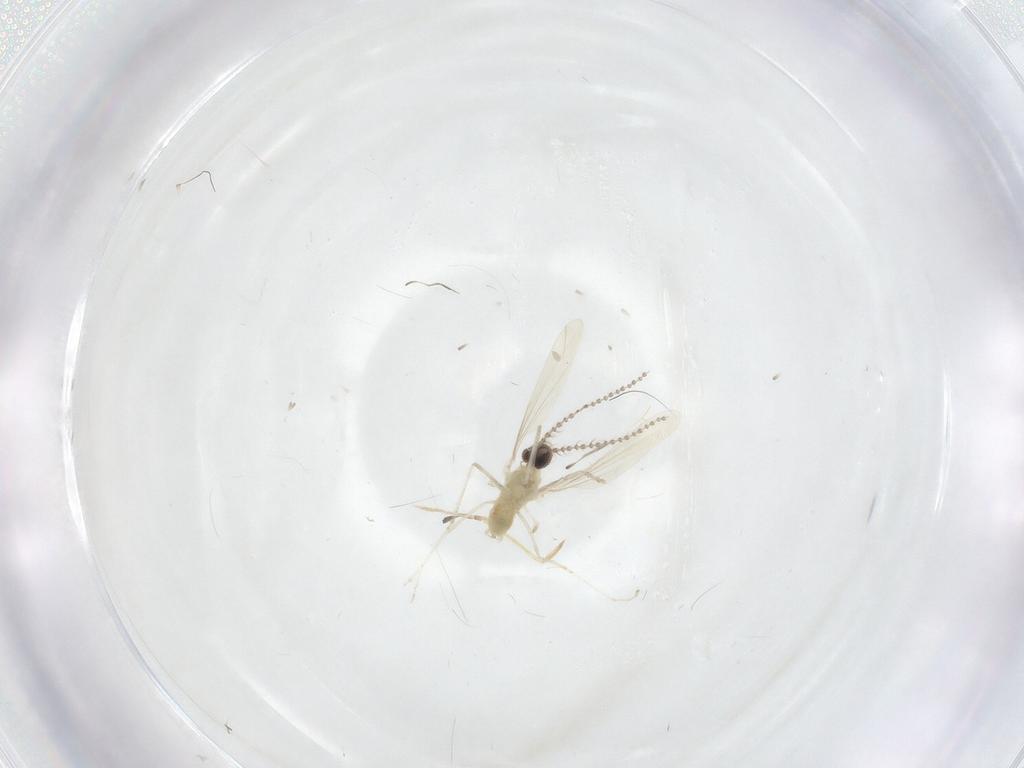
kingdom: Animalia
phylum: Arthropoda
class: Insecta
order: Diptera
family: Cecidomyiidae
